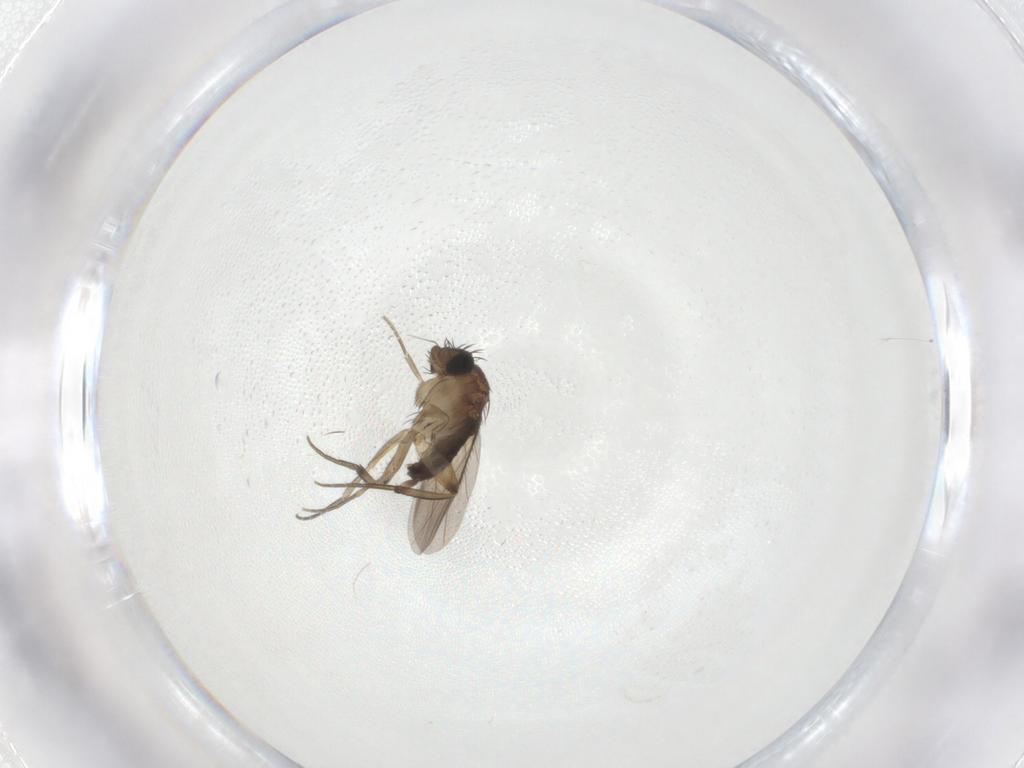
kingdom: Animalia
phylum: Arthropoda
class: Insecta
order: Diptera
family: Phoridae
